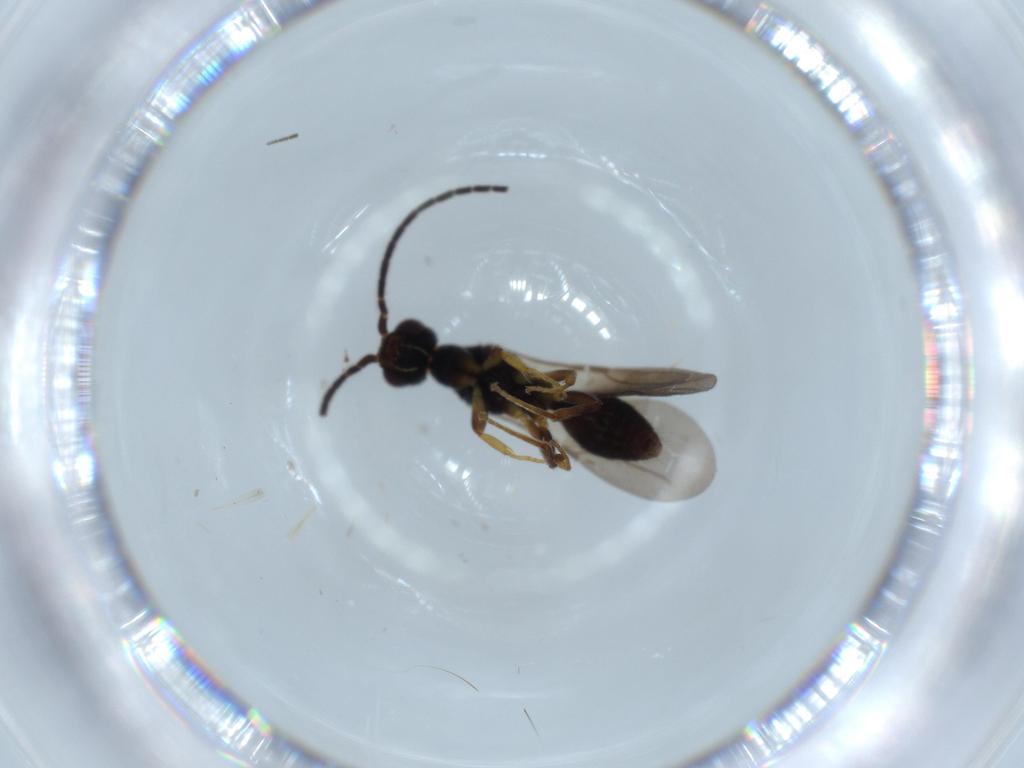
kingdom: Animalia
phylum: Arthropoda
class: Insecta
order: Hymenoptera
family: Bethylidae
